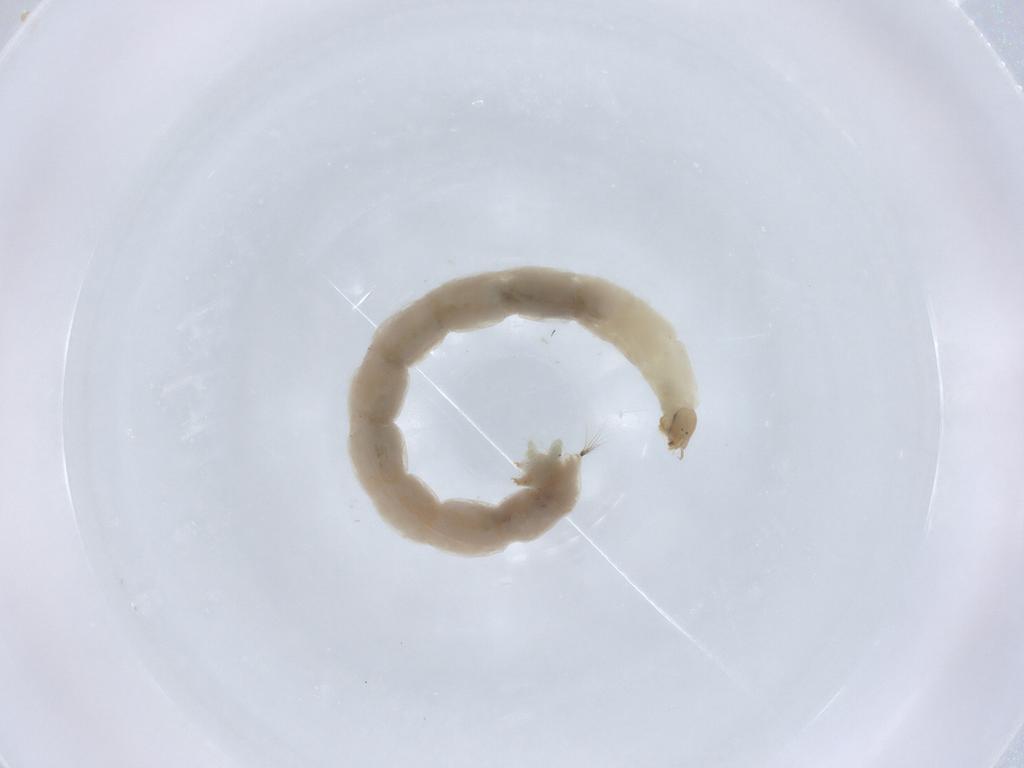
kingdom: Animalia
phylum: Arthropoda
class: Insecta
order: Diptera
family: Chironomidae
